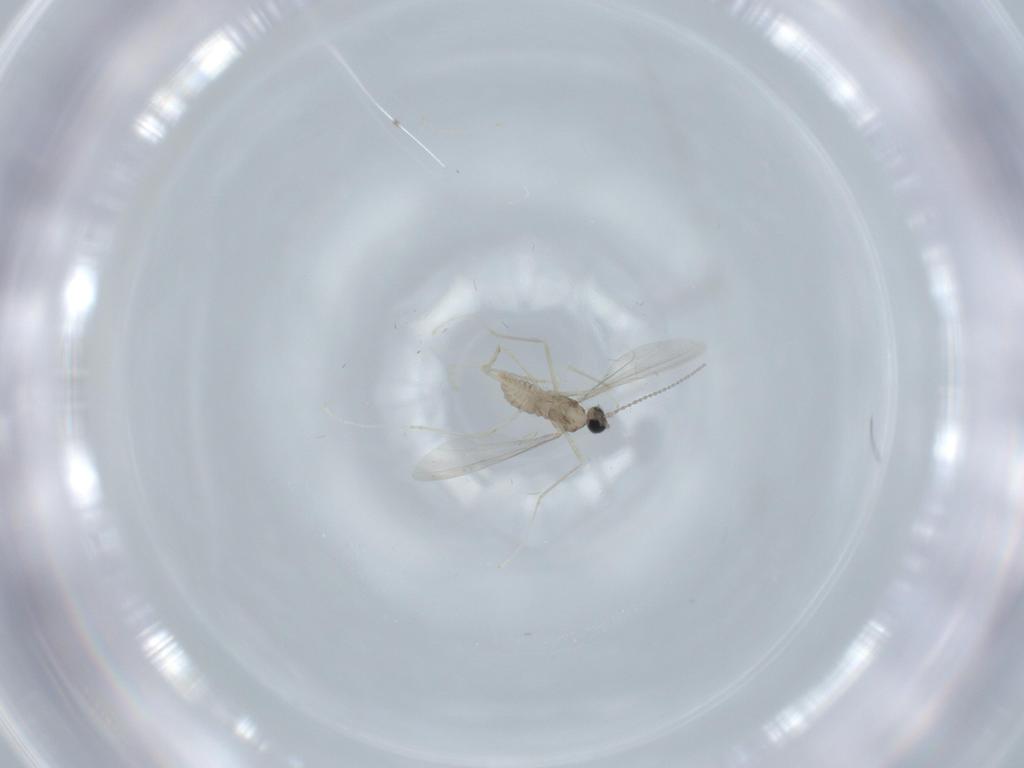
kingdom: Animalia
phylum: Arthropoda
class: Insecta
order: Diptera
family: Cecidomyiidae
